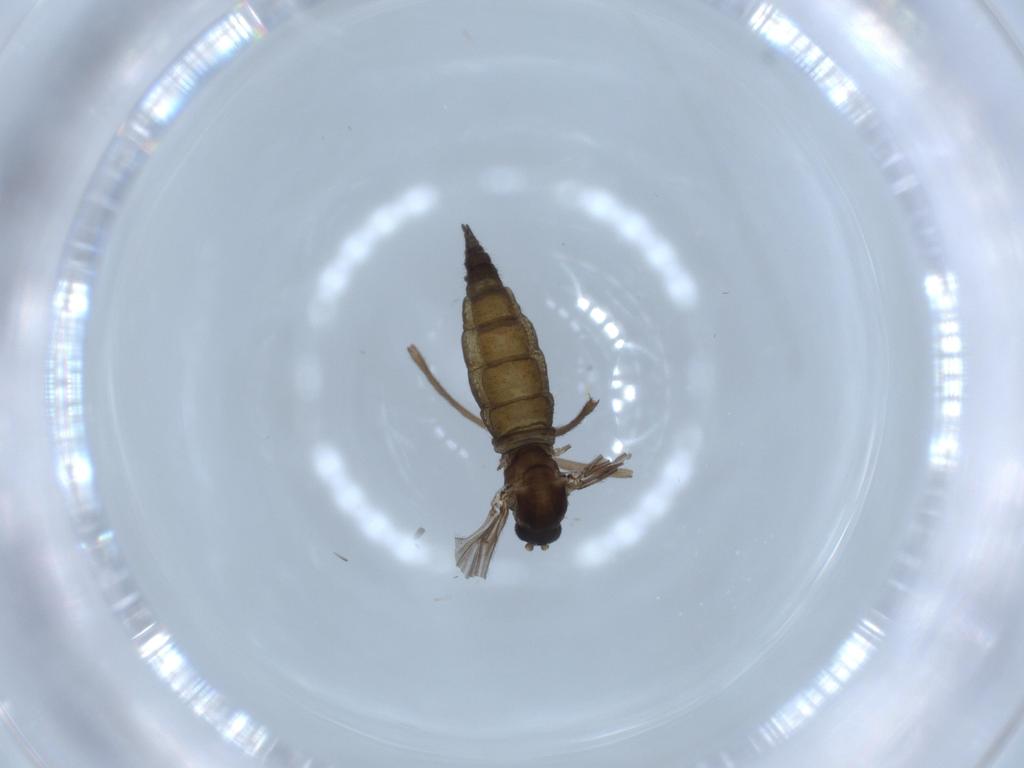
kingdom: Animalia
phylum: Arthropoda
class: Insecta
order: Diptera
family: Sciaridae
